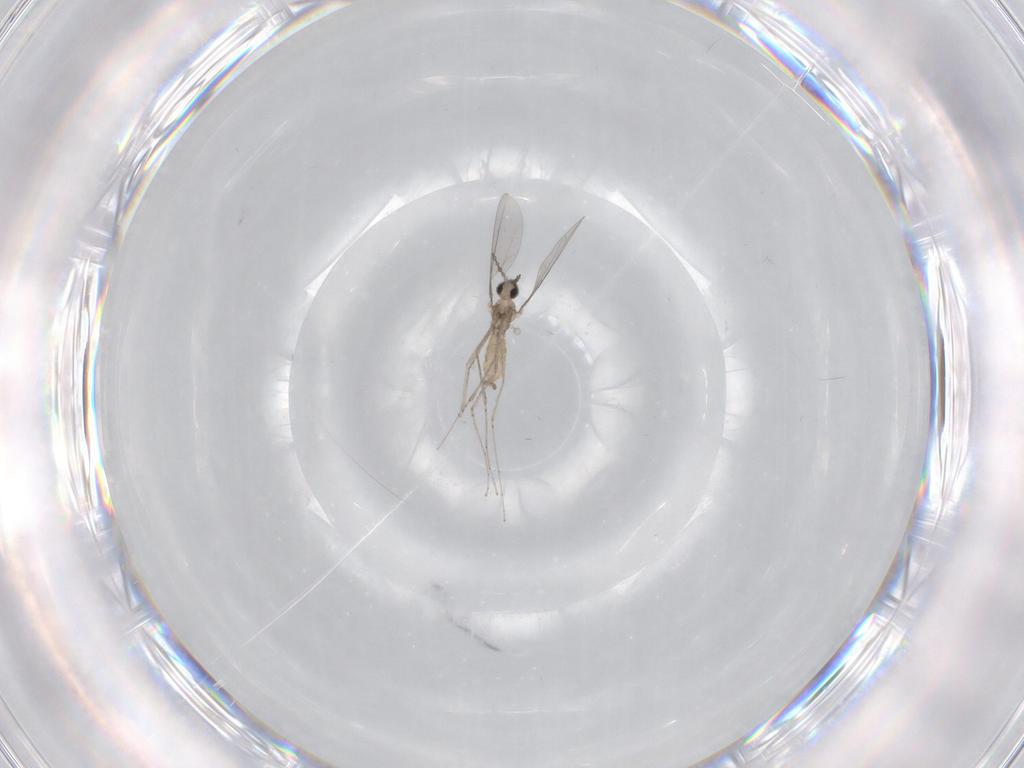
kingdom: Animalia
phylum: Arthropoda
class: Insecta
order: Diptera
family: Cecidomyiidae
